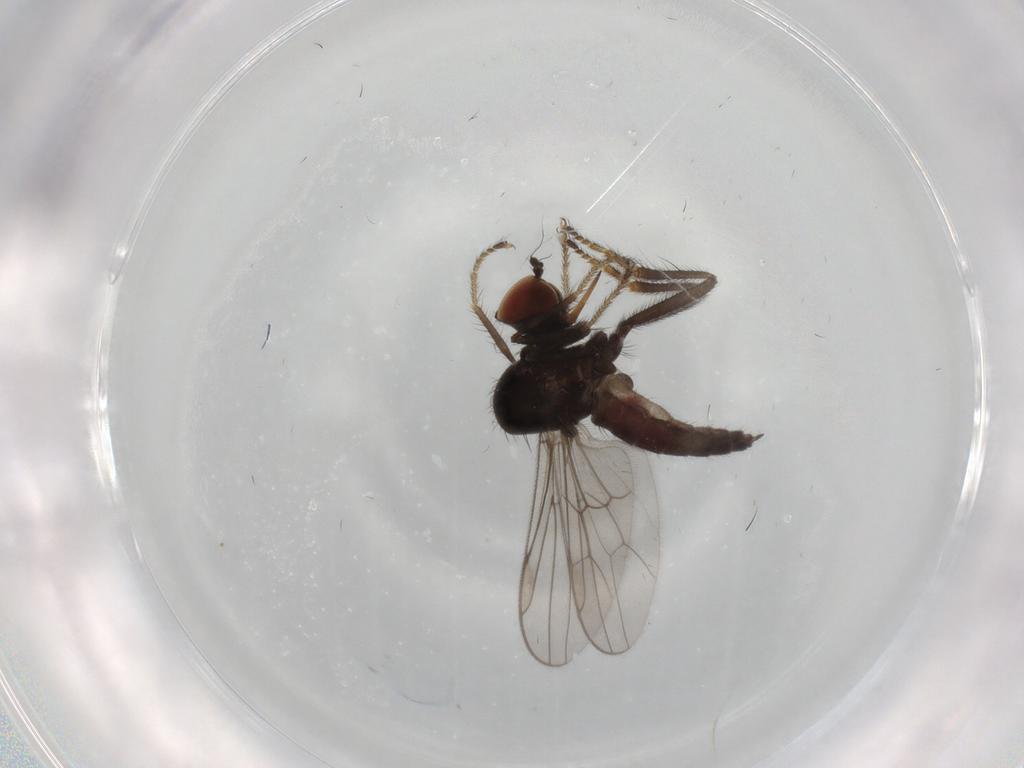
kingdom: Animalia
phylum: Arthropoda
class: Insecta
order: Diptera
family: Hybotidae
